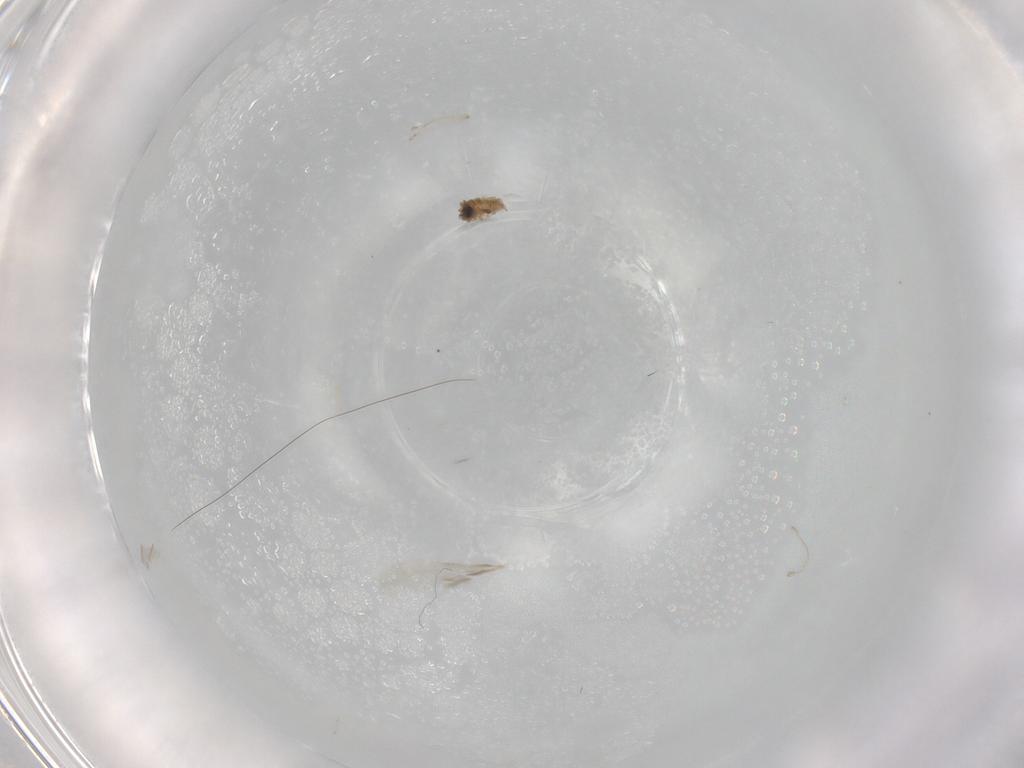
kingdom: Animalia
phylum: Arthropoda
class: Insecta
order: Diptera
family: Cecidomyiidae
